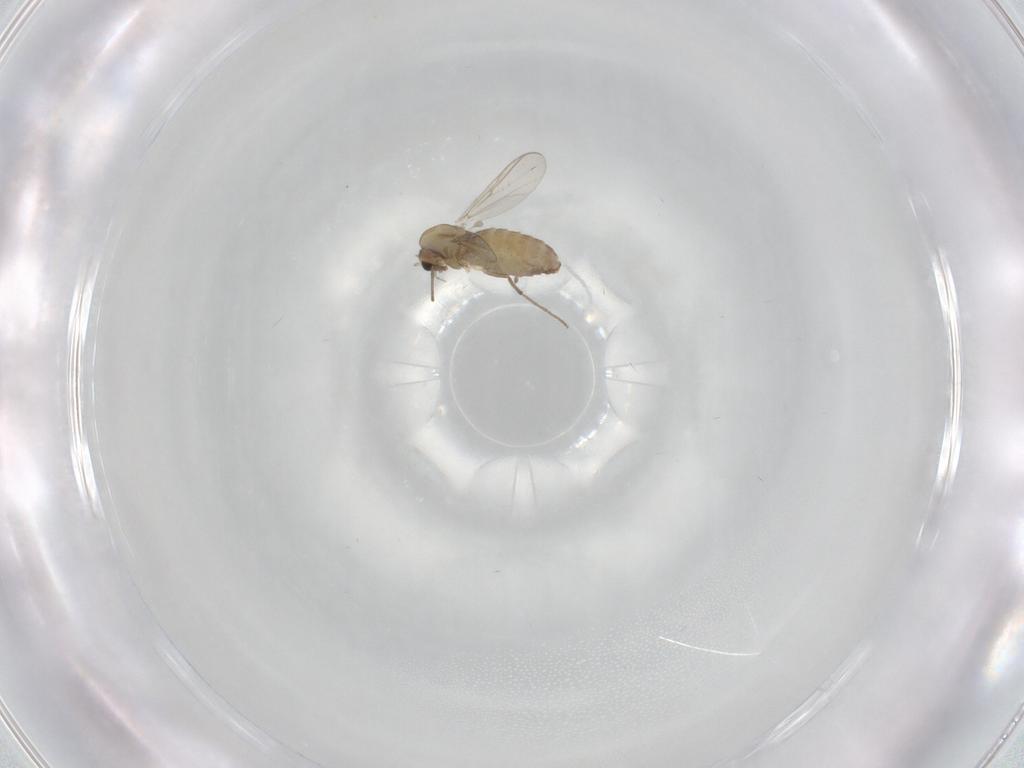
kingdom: Animalia
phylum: Arthropoda
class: Insecta
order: Diptera
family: Chironomidae
